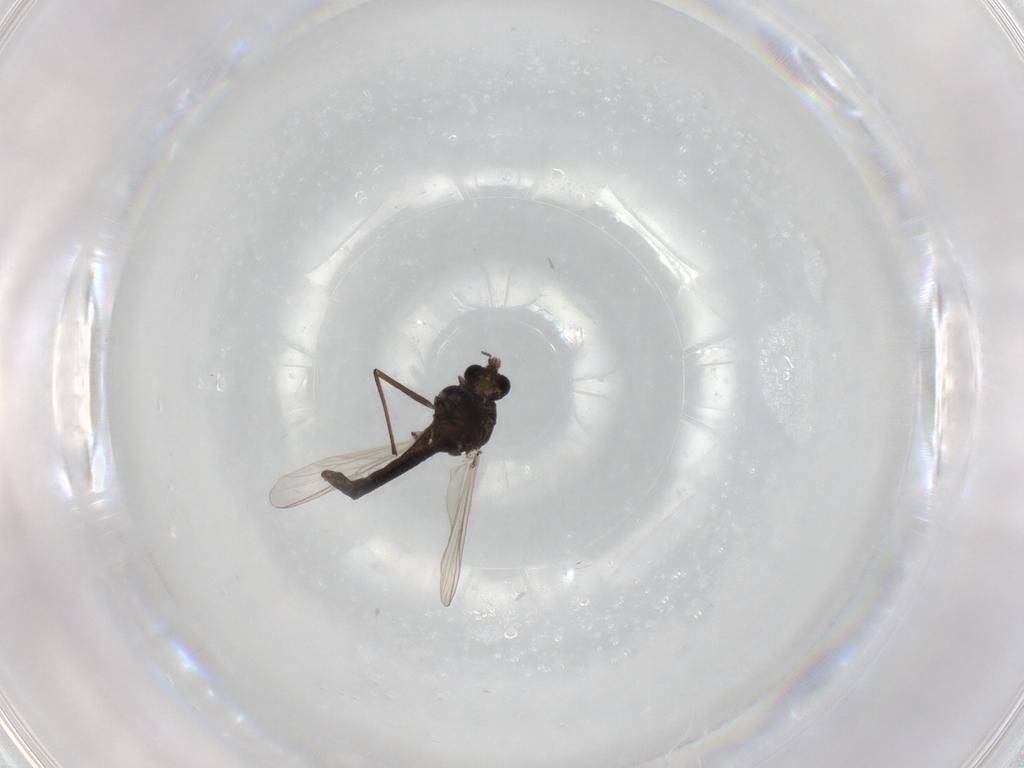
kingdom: Animalia
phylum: Arthropoda
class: Insecta
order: Diptera
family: Chironomidae
